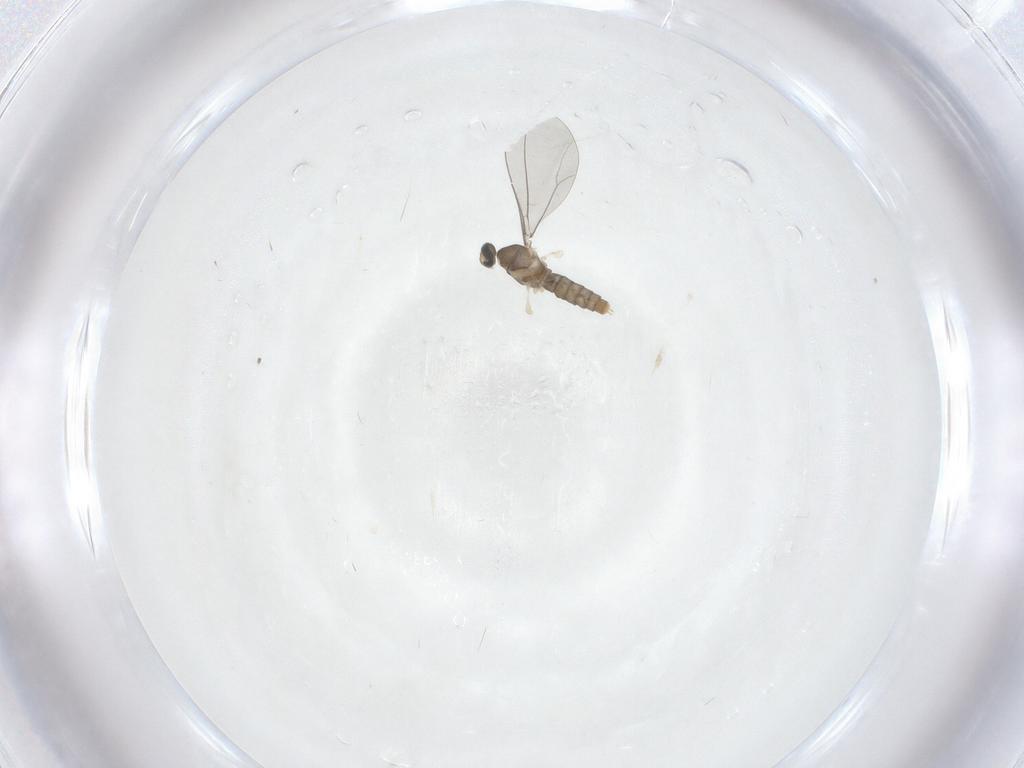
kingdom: Animalia
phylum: Arthropoda
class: Insecta
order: Diptera
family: Cecidomyiidae
